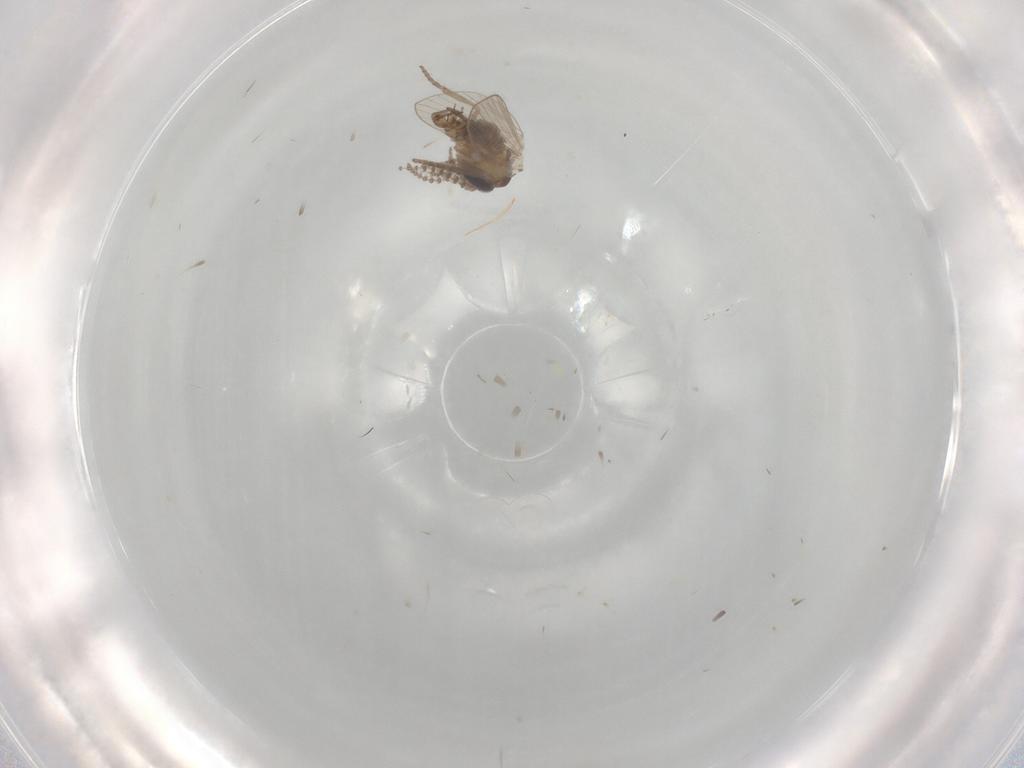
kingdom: Animalia
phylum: Arthropoda
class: Insecta
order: Diptera
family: Psychodidae
